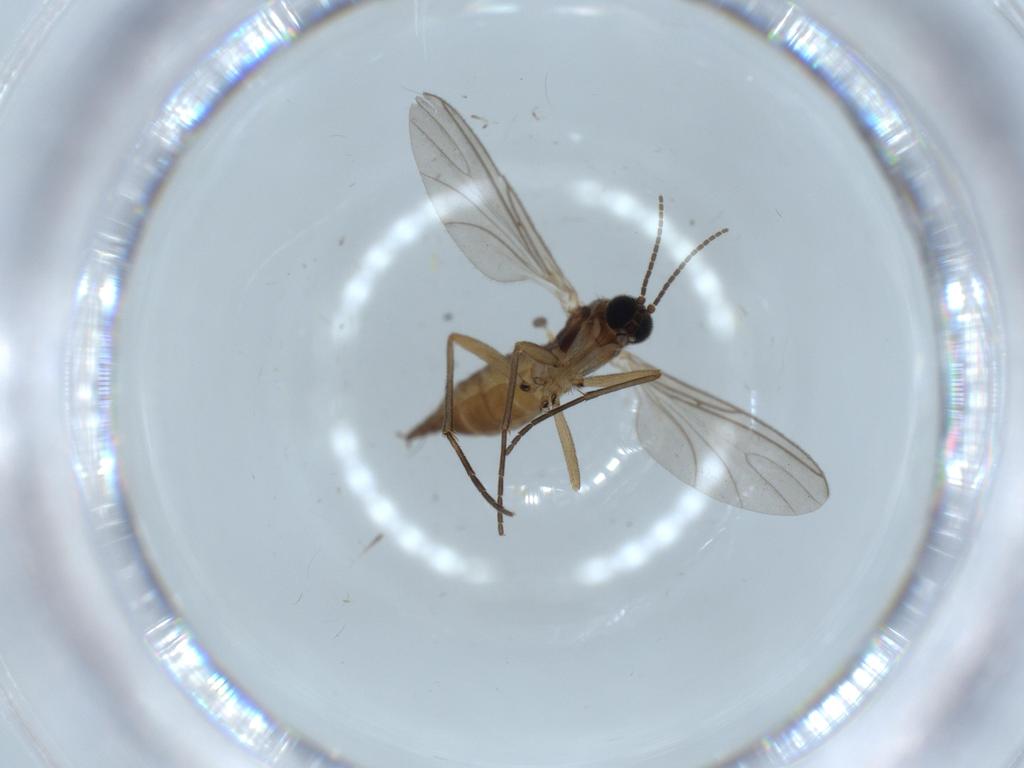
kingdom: Animalia
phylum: Arthropoda
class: Insecta
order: Diptera
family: Sciaridae
